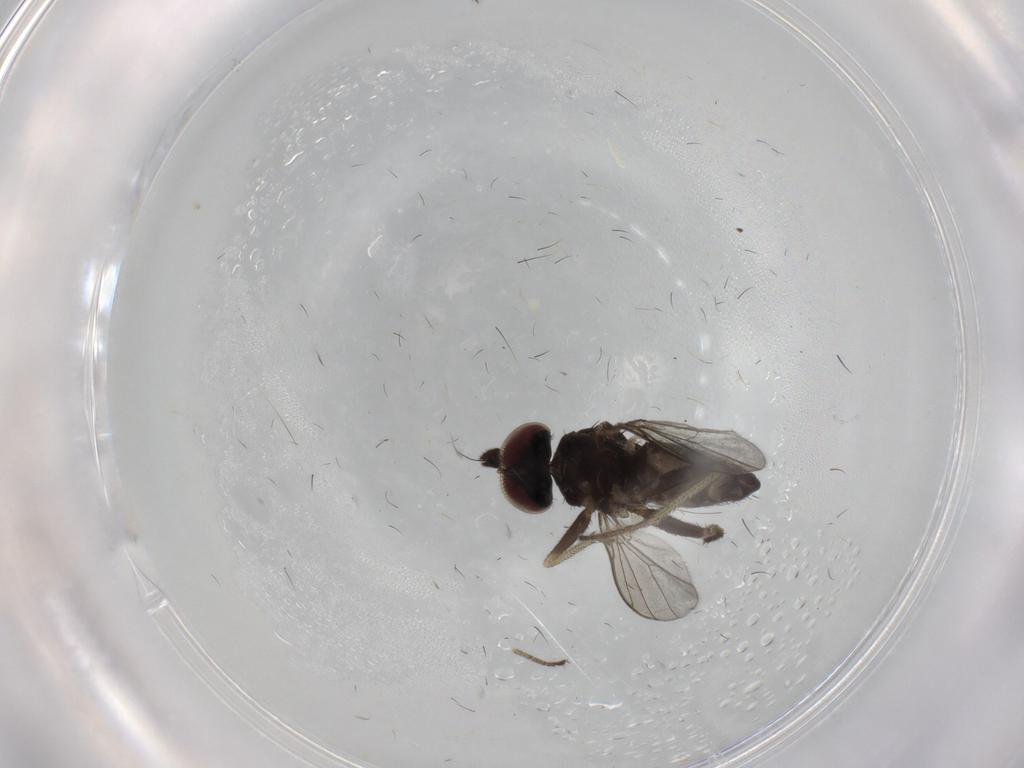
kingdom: Animalia
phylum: Arthropoda
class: Insecta
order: Diptera
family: Dolichopodidae
